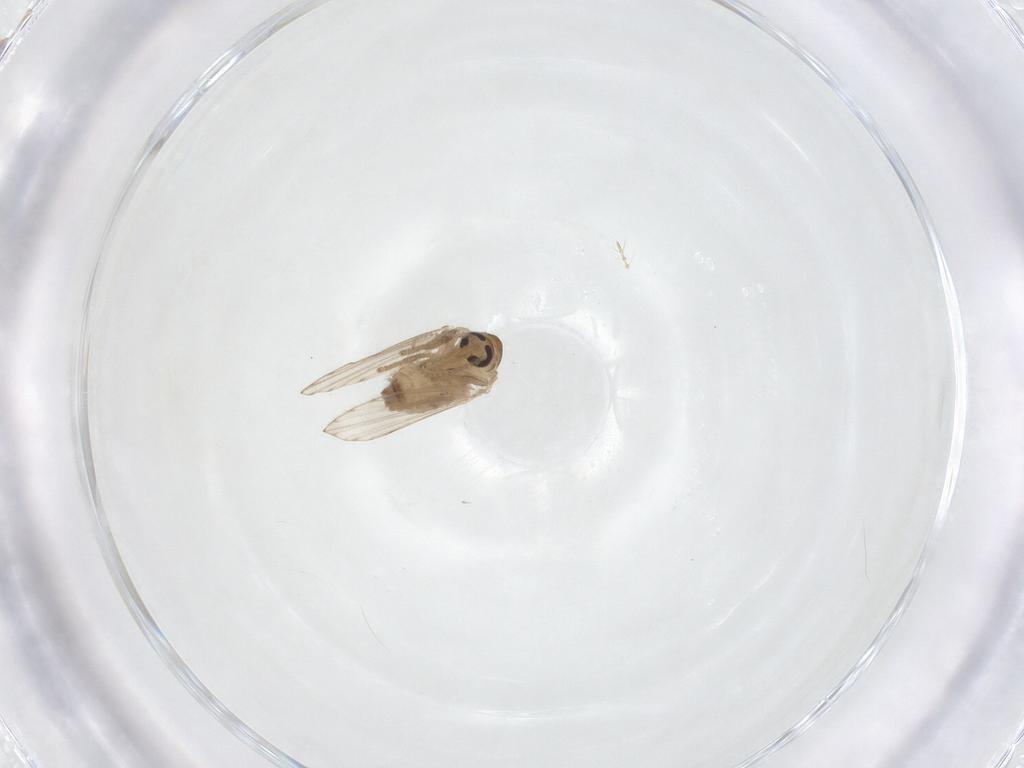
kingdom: Animalia
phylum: Arthropoda
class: Insecta
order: Diptera
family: Psychodidae
